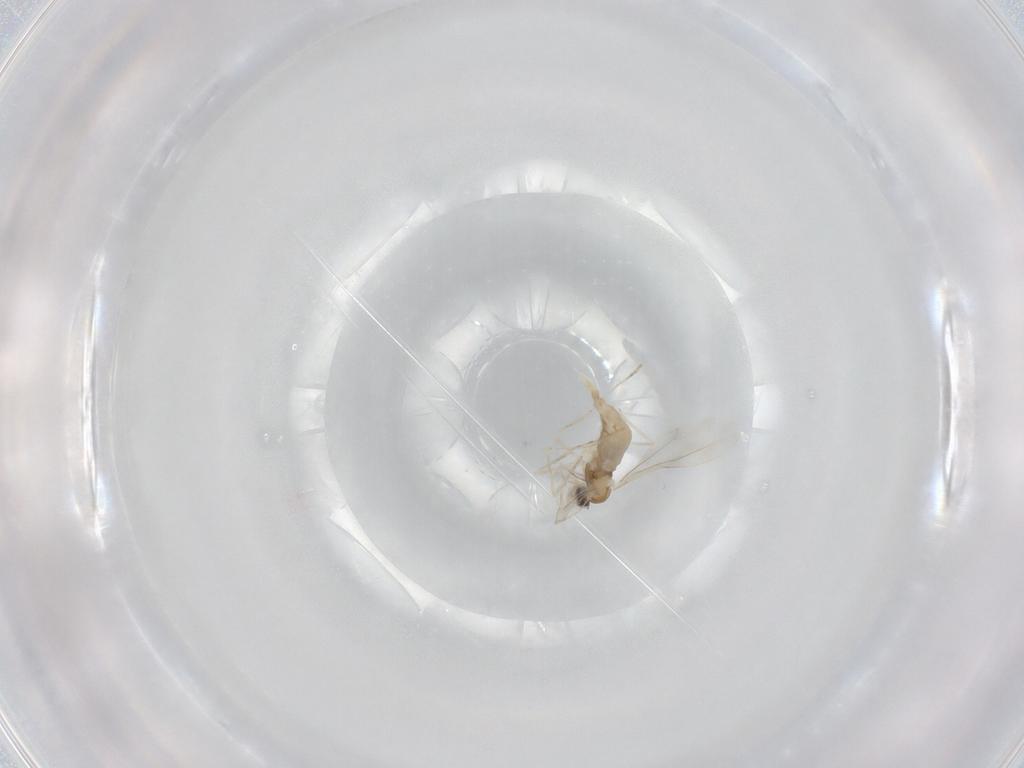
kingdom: Animalia
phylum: Arthropoda
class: Insecta
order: Diptera
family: Cecidomyiidae
